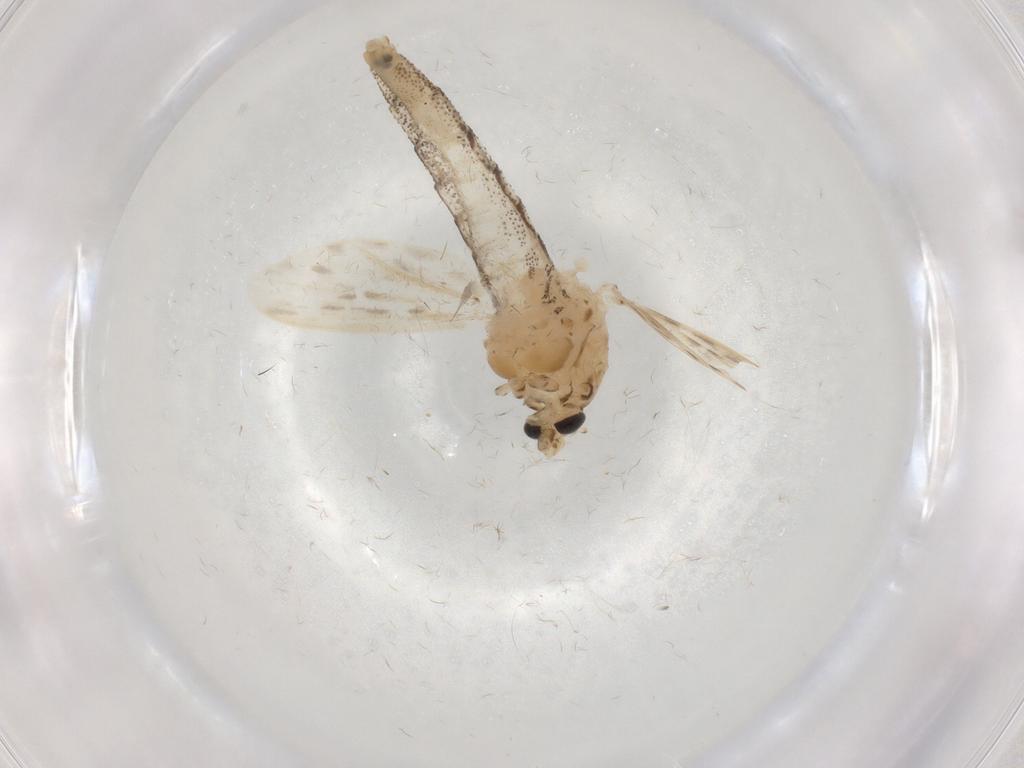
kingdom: Animalia
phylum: Arthropoda
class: Insecta
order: Diptera
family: Chaoboridae
